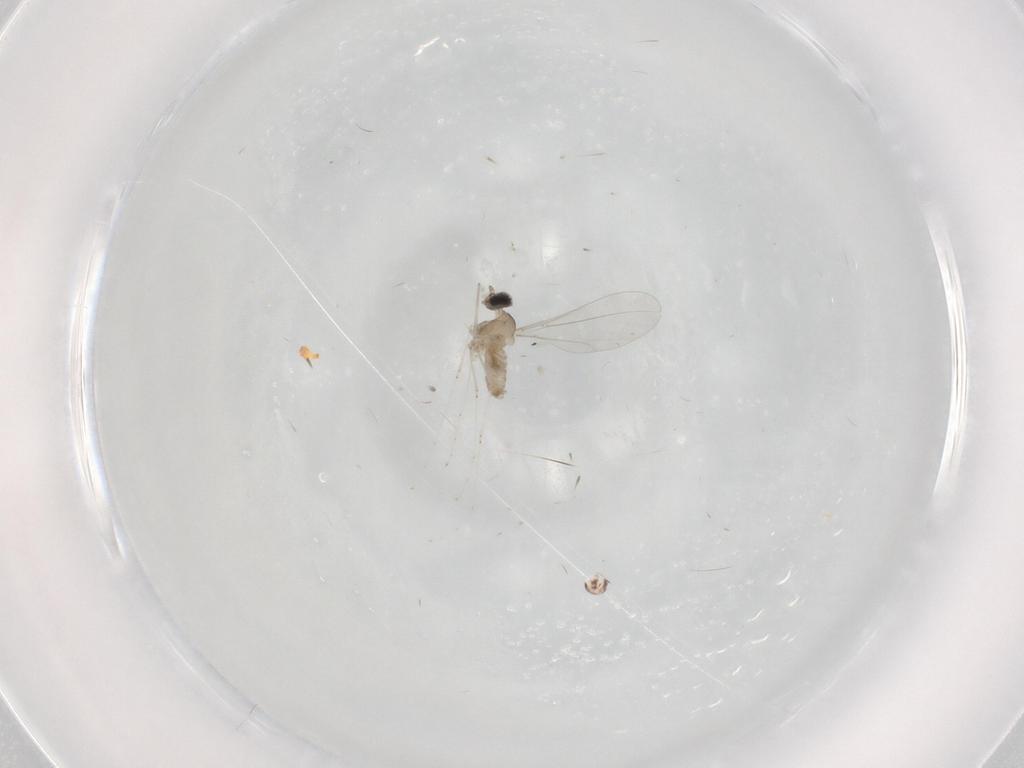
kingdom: Animalia
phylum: Arthropoda
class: Insecta
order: Diptera
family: Cecidomyiidae
